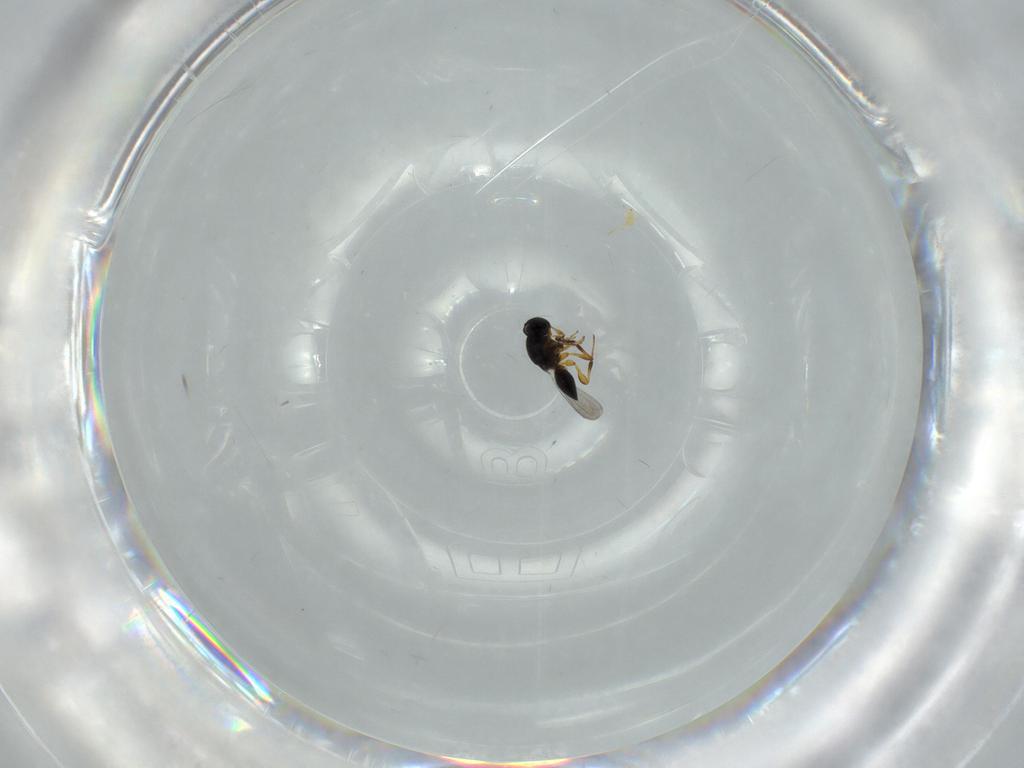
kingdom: Animalia
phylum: Arthropoda
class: Insecta
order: Hymenoptera
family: Platygastridae
